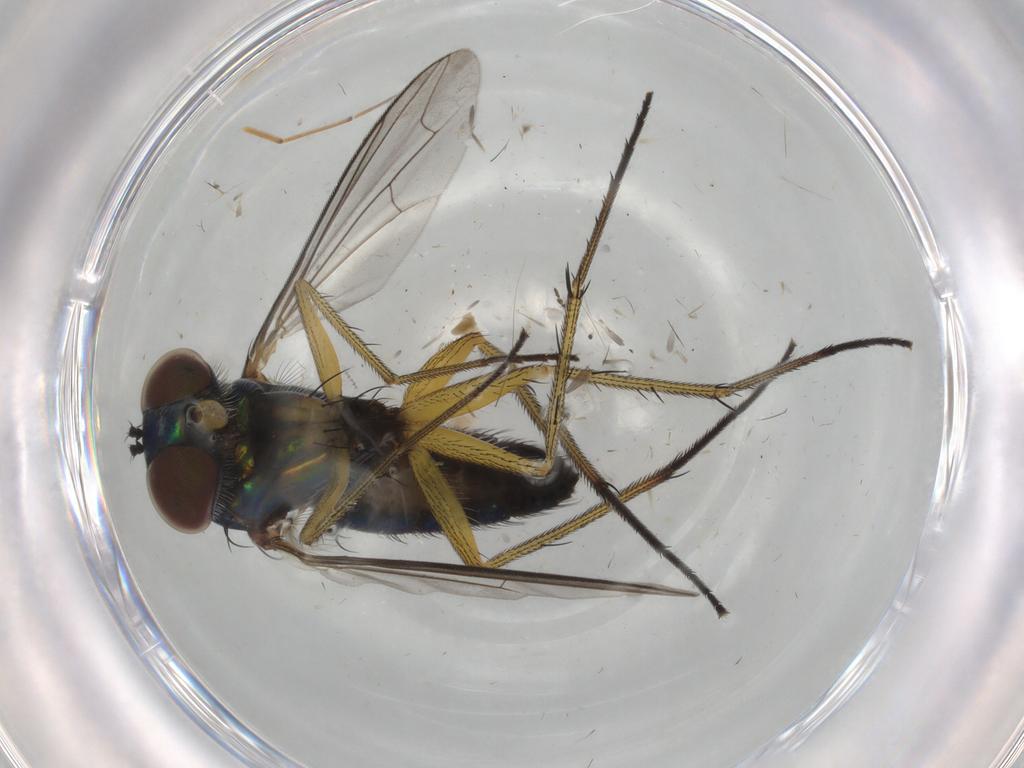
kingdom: Animalia
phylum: Arthropoda
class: Insecta
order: Diptera
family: Dolichopodidae
